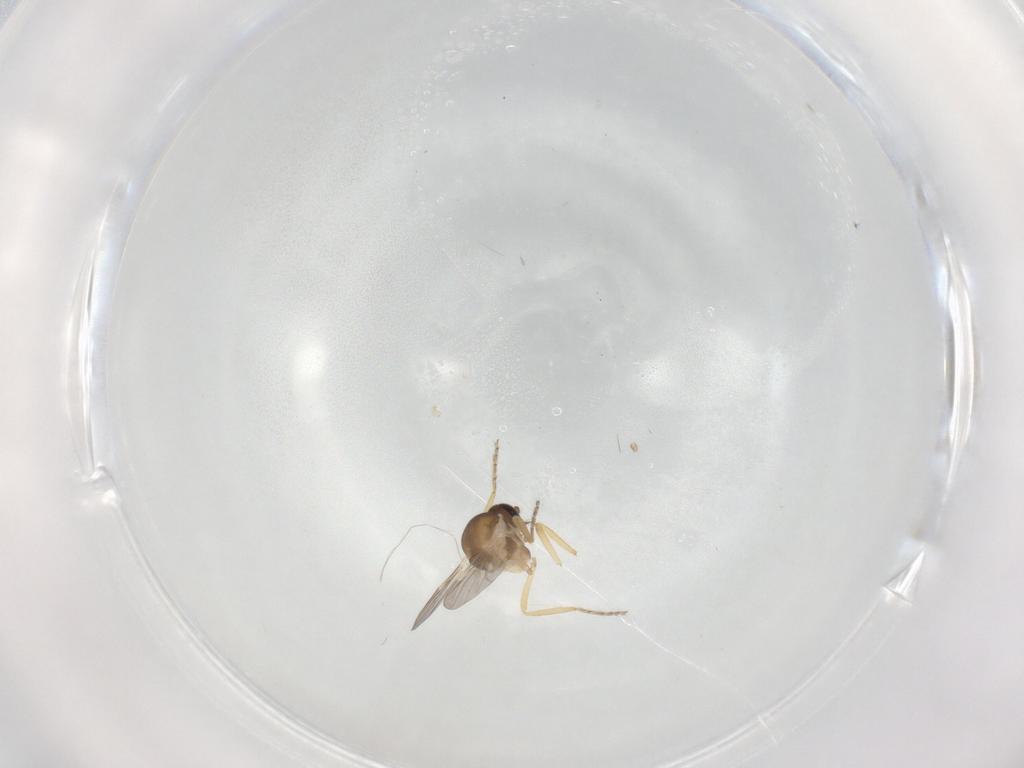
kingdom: Animalia
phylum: Arthropoda
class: Insecta
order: Diptera
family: Ceratopogonidae
